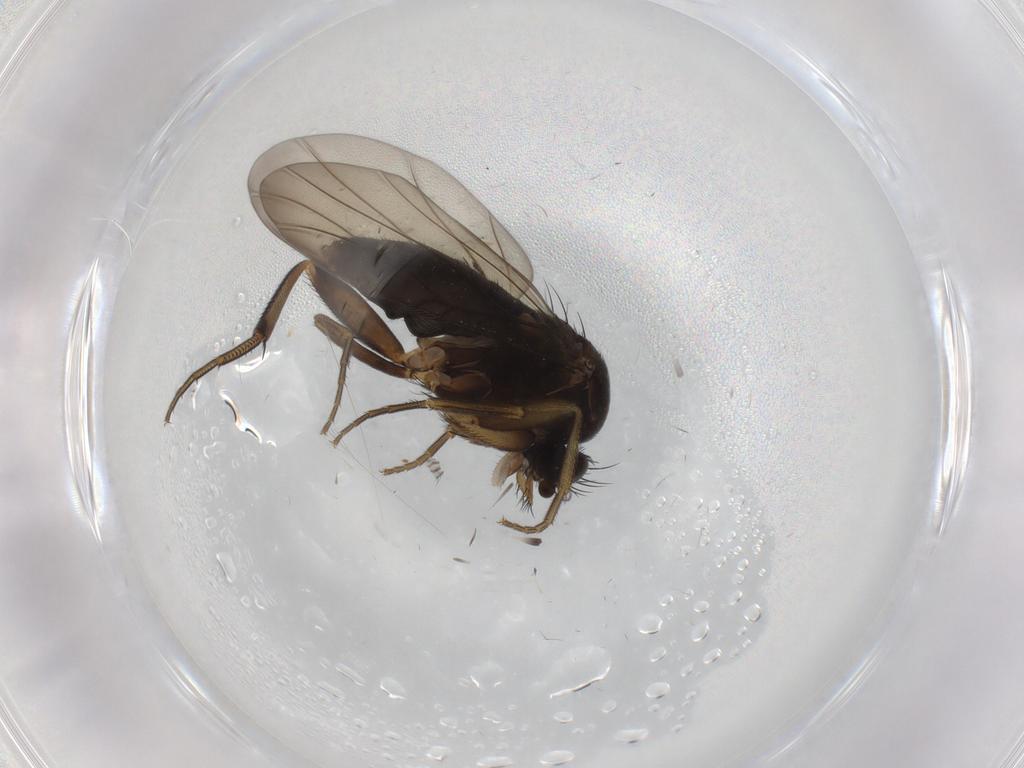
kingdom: Animalia
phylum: Arthropoda
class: Insecta
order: Diptera
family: Phoridae
